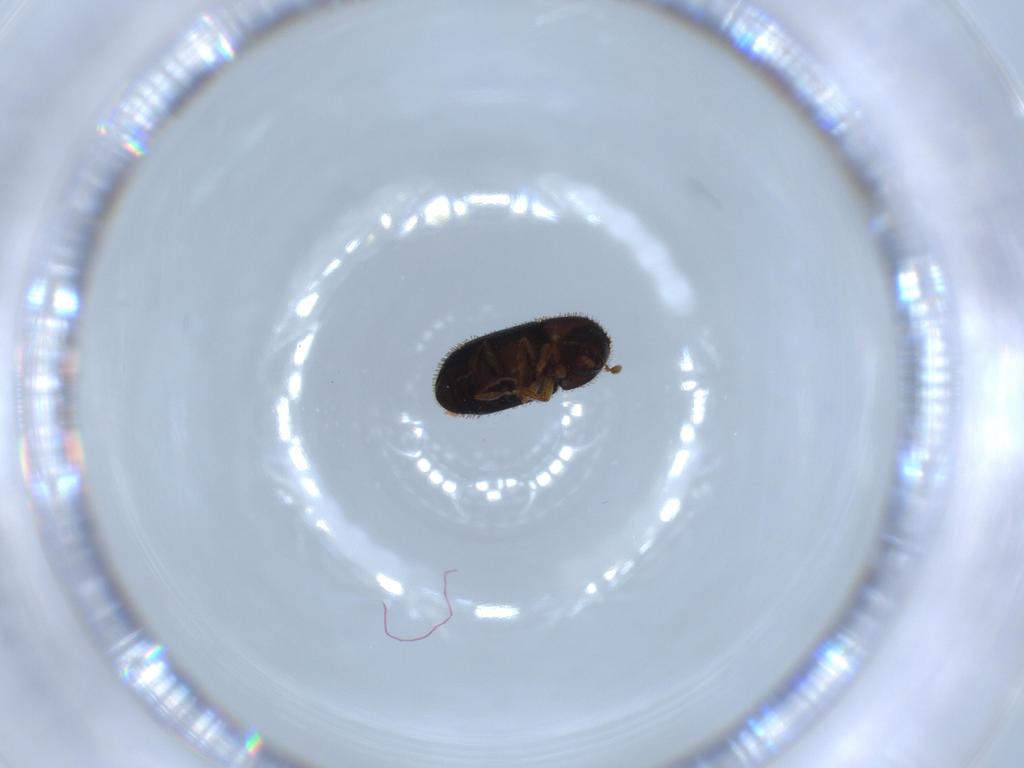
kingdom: Animalia
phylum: Arthropoda
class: Insecta
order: Coleoptera
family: Curculionidae
